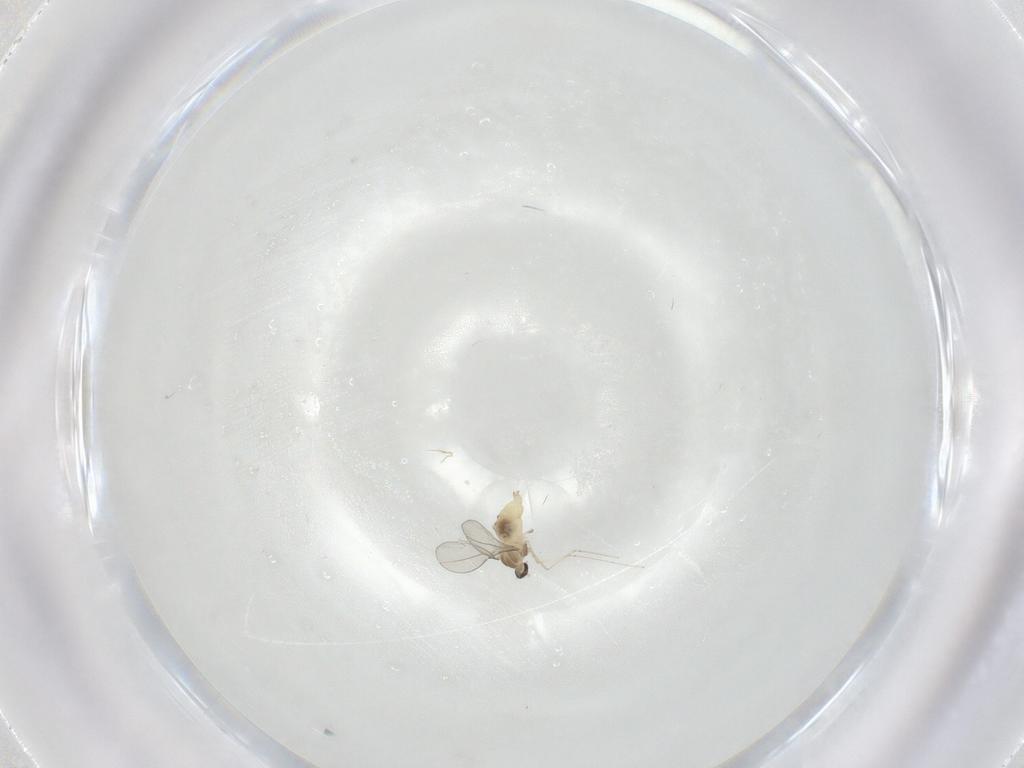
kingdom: Animalia
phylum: Arthropoda
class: Insecta
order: Diptera
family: Cecidomyiidae
